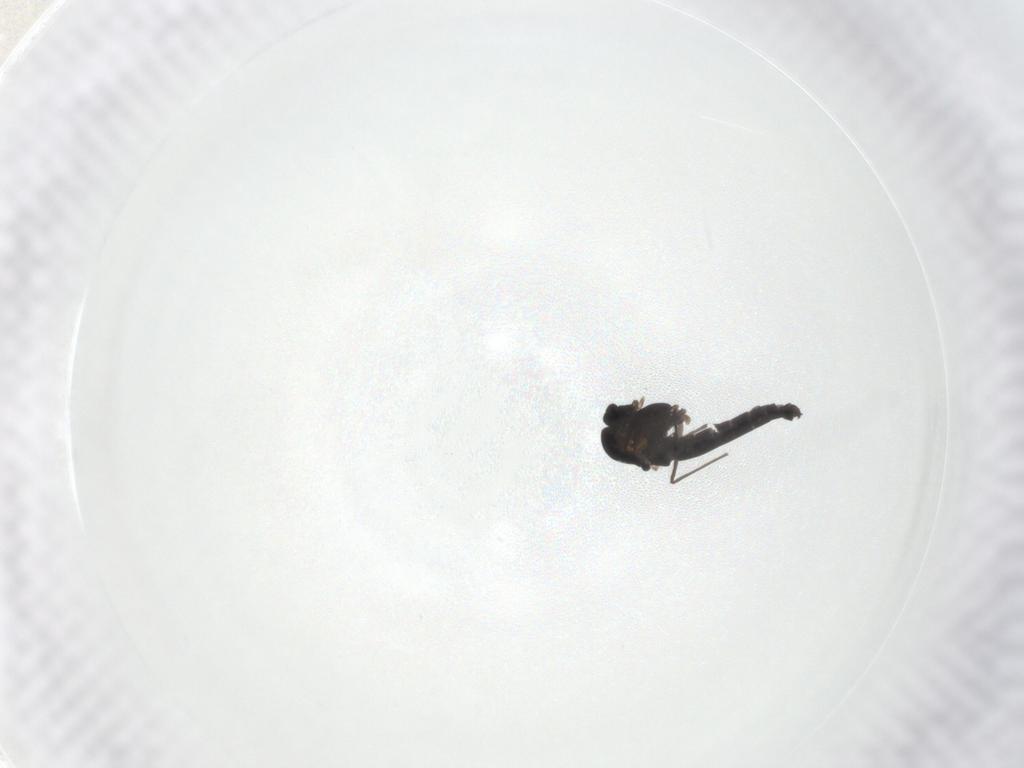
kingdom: Animalia
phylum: Arthropoda
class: Insecta
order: Diptera
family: Chironomidae
